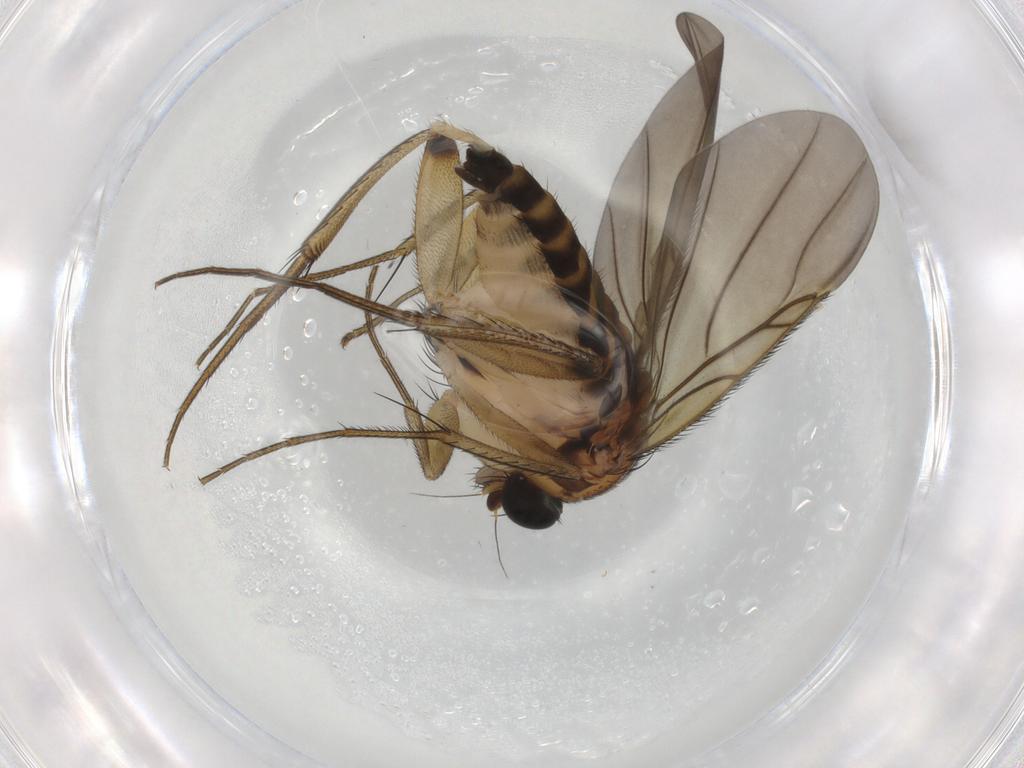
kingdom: Animalia
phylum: Arthropoda
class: Insecta
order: Diptera
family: Phoridae
